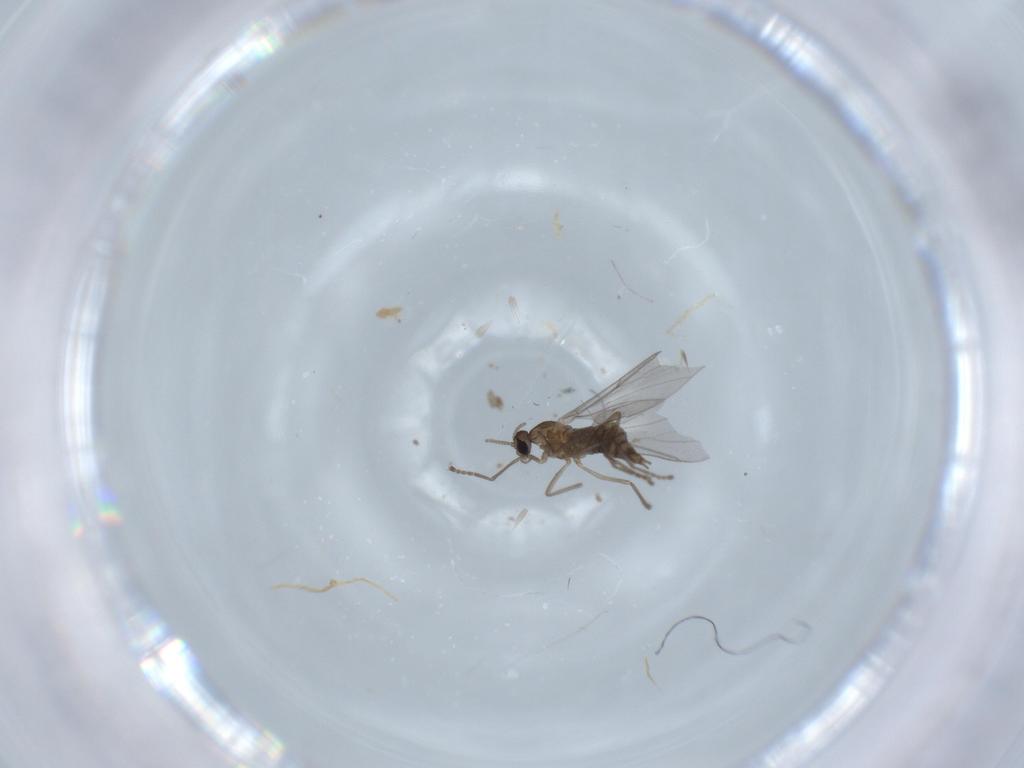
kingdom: Animalia
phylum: Arthropoda
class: Insecta
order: Diptera
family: Cecidomyiidae
